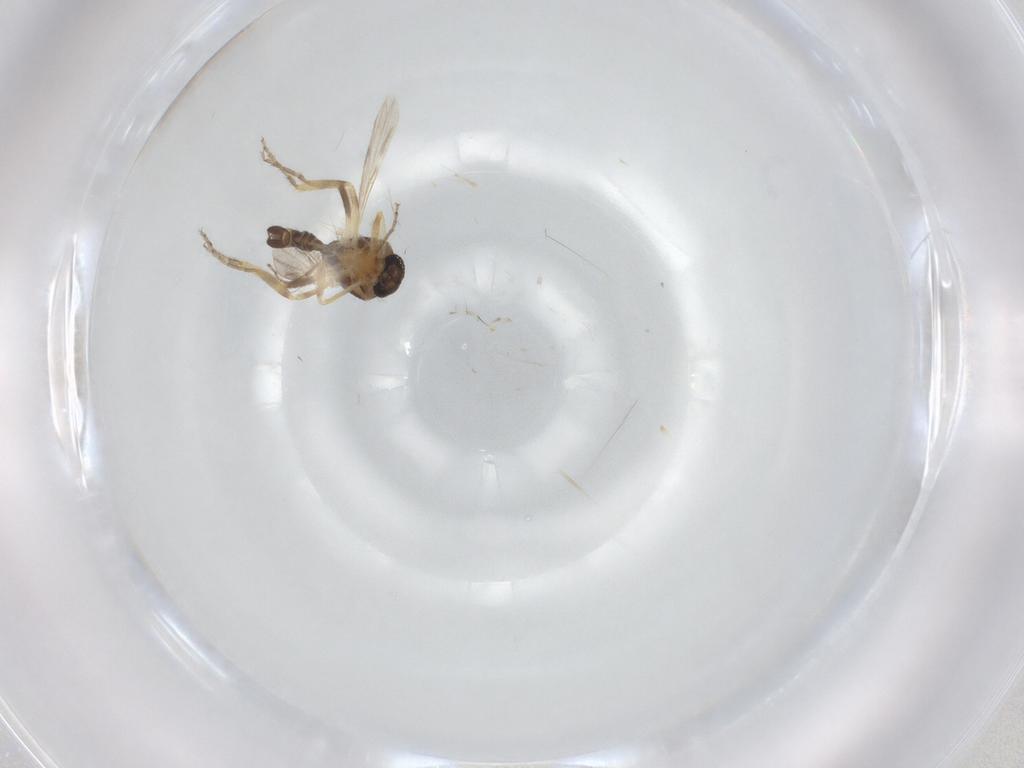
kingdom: Animalia
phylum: Arthropoda
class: Insecta
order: Diptera
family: Ceratopogonidae
